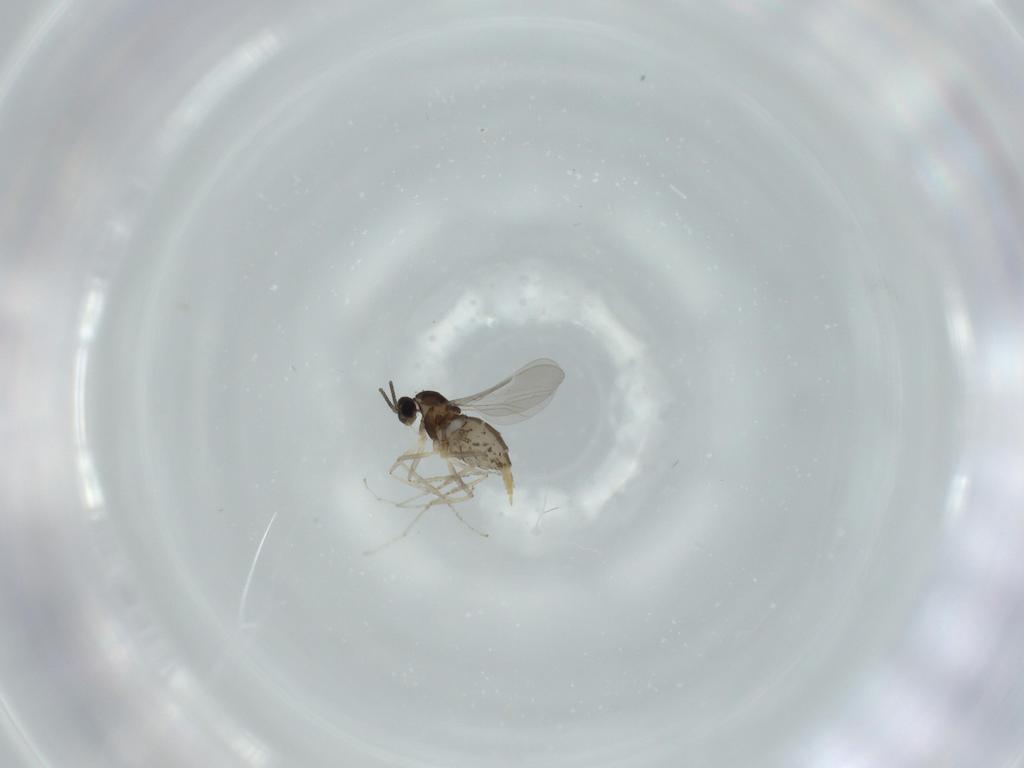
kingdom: Animalia
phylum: Arthropoda
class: Insecta
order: Diptera
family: Cecidomyiidae
